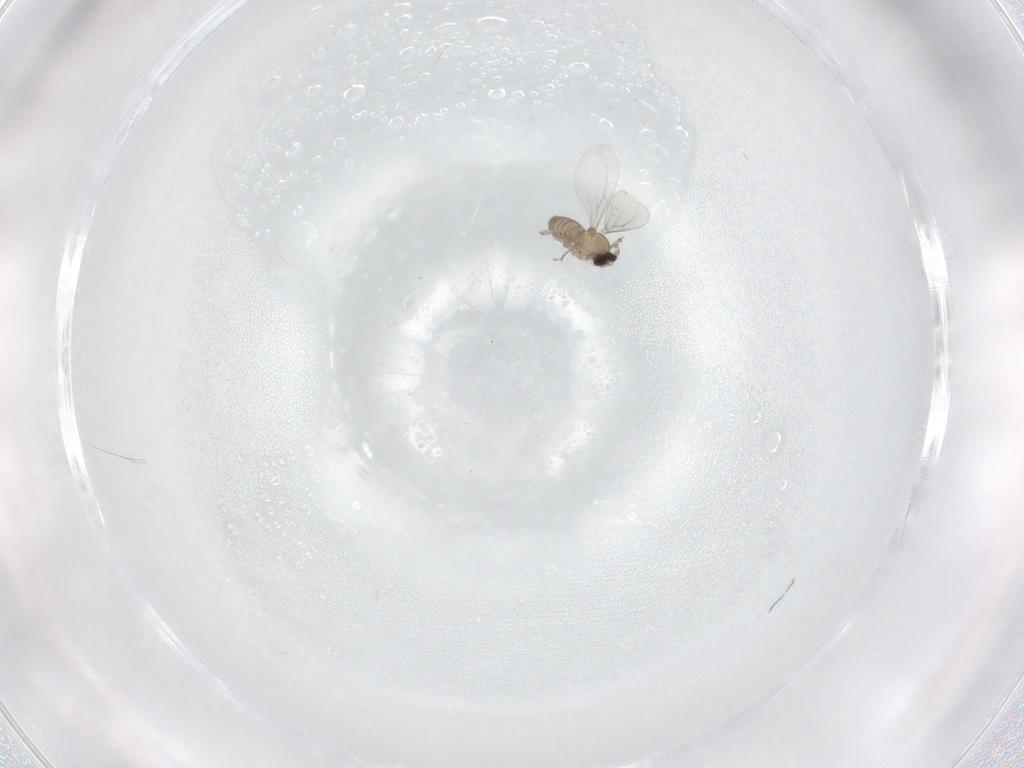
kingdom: Animalia
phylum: Arthropoda
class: Insecta
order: Diptera
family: Cecidomyiidae
